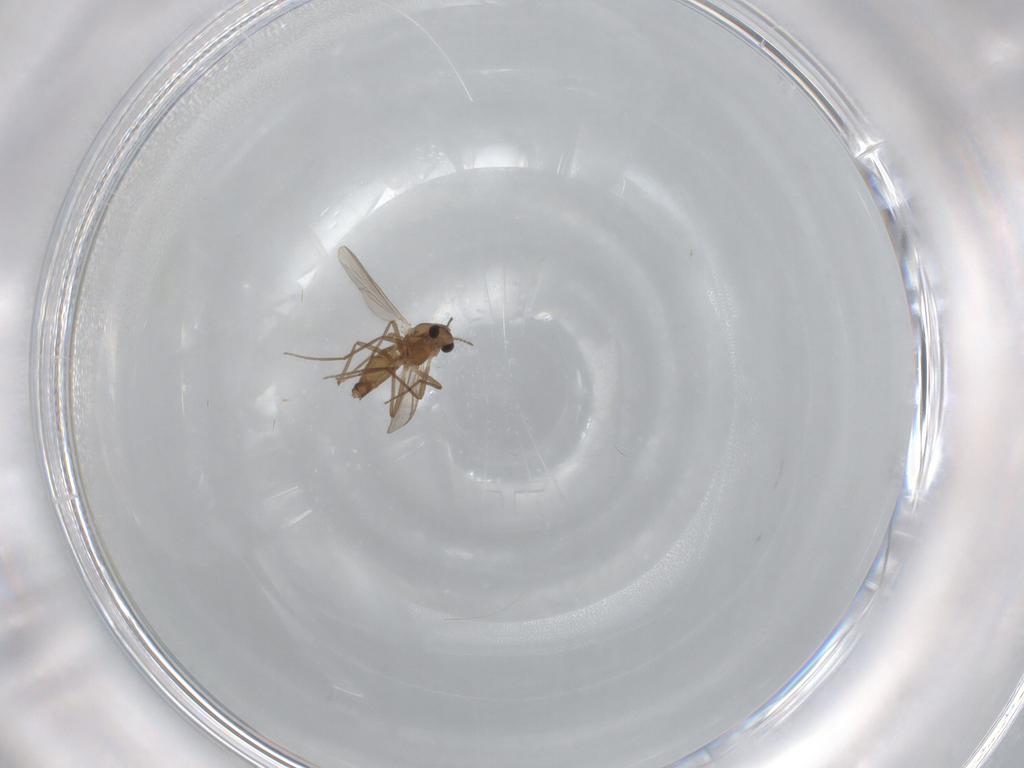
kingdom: Animalia
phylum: Arthropoda
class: Insecta
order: Diptera
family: Chironomidae
